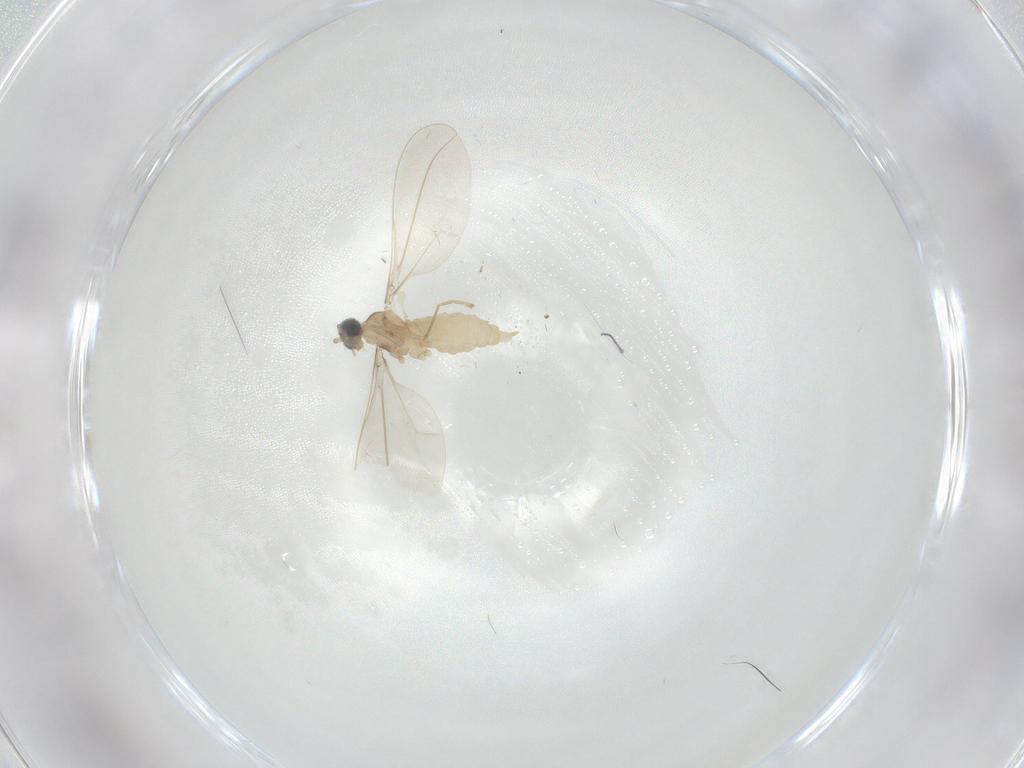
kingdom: Animalia
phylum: Arthropoda
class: Insecta
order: Diptera
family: Cecidomyiidae
